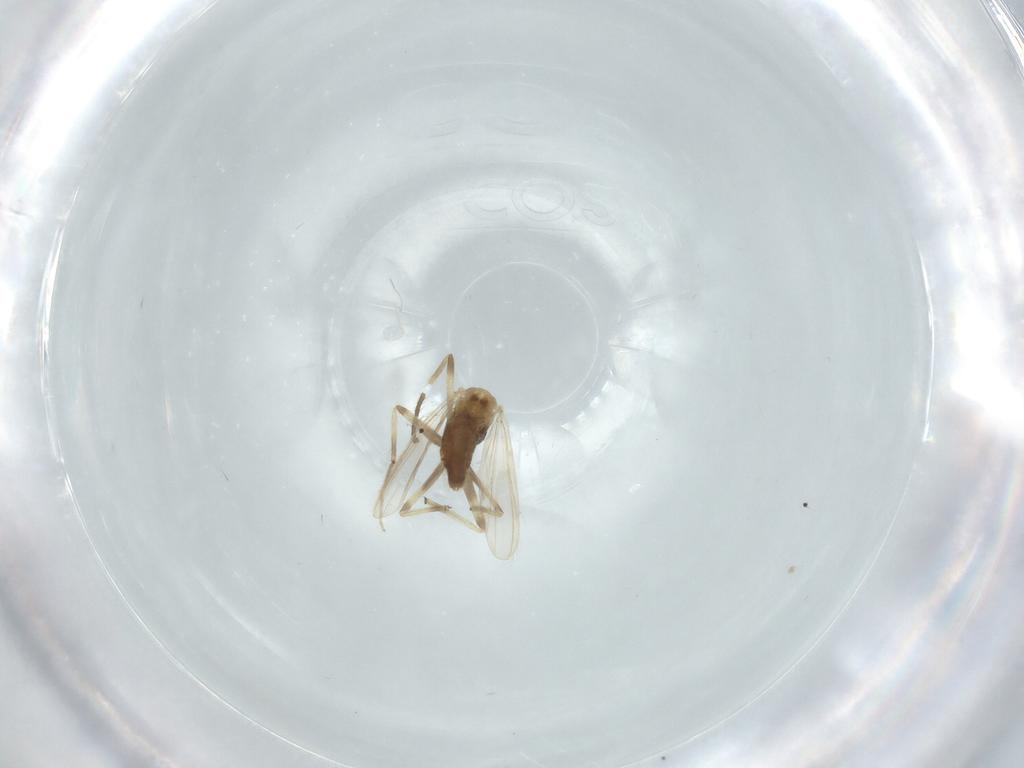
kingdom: Animalia
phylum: Arthropoda
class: Insecta
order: Diptera
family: Chironomidae
